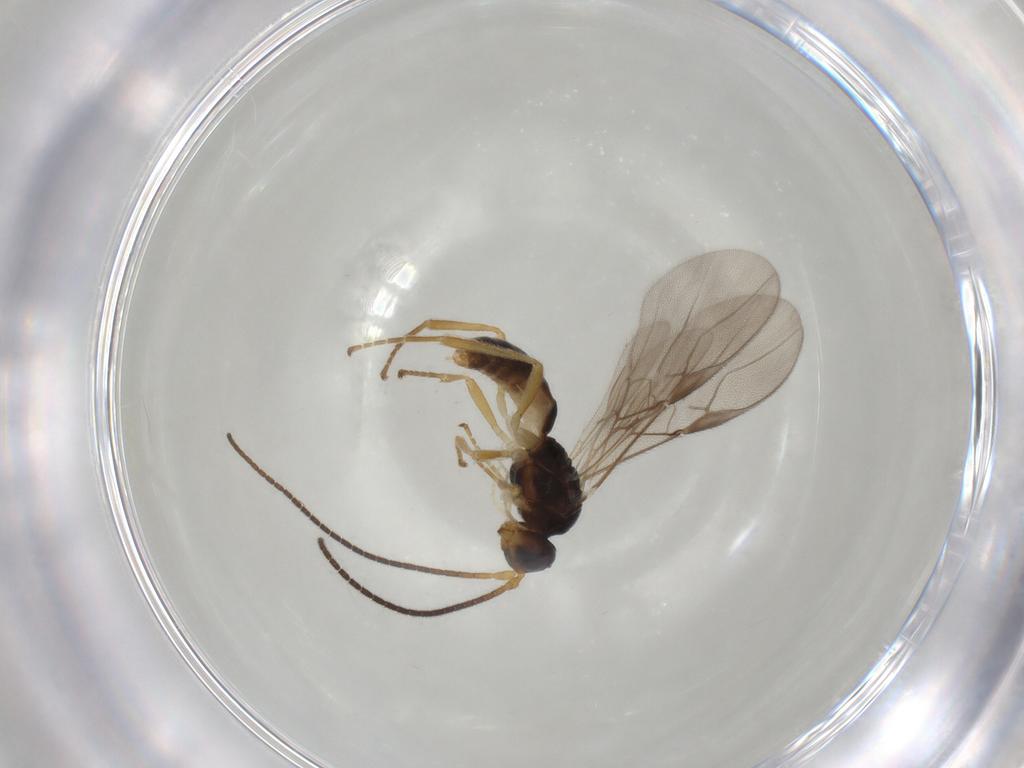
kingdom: Animalia
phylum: Arthropoda
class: Insecta
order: Hymenoptera
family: Braconidae
